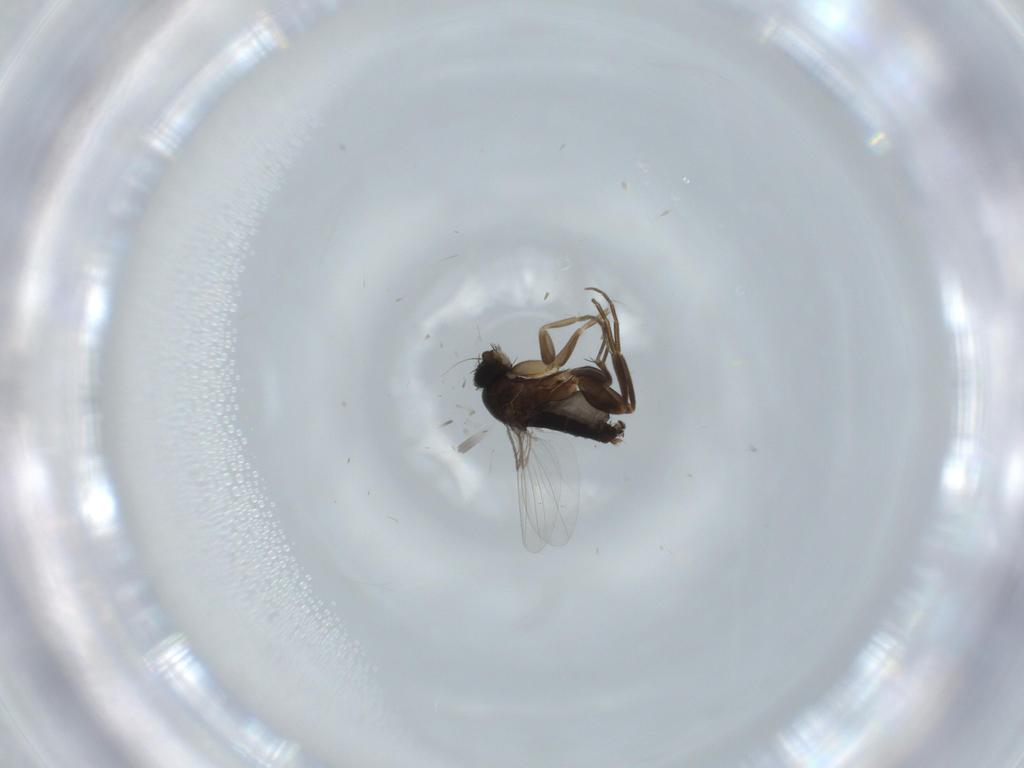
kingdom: Animalia
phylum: Arthropoda
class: Insecta
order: Diptera
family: Phoridae
